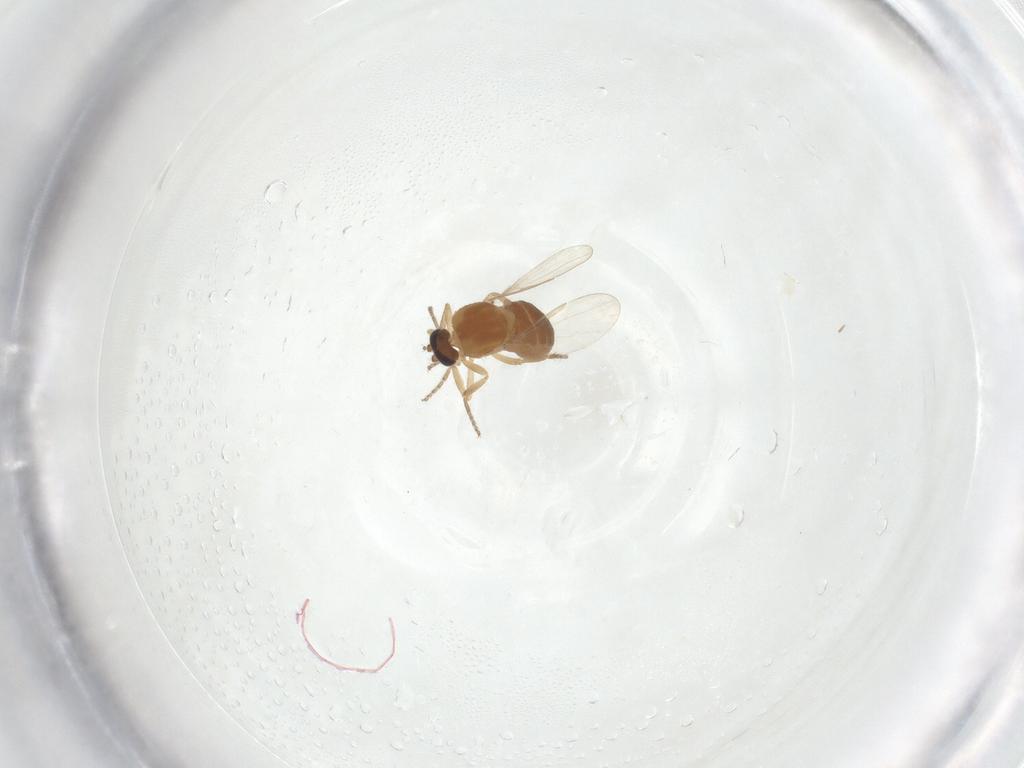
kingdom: Animalia
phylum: Arthropoda
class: Insecta
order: Diptera
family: Ceratopogonidae
